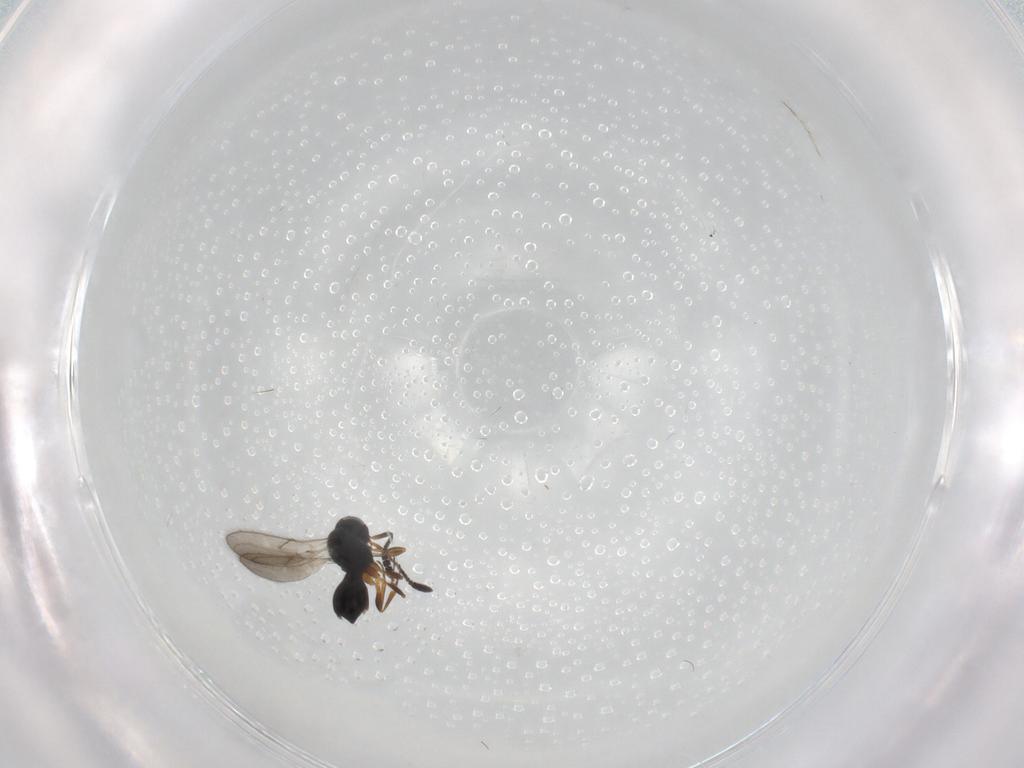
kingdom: Animalia
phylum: Arthropoda
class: Insecta
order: Hymenoptera
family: Scelionidae
